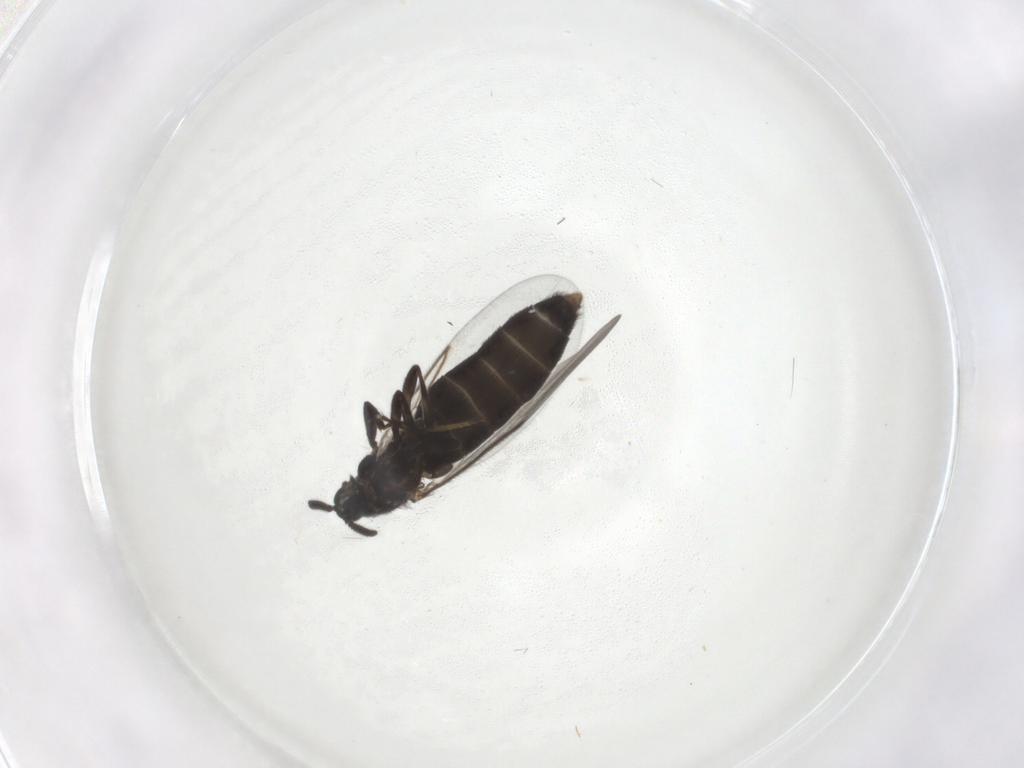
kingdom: Animalia
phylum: Arthropoda
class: Insecta
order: Diptera
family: Scatopsidae
